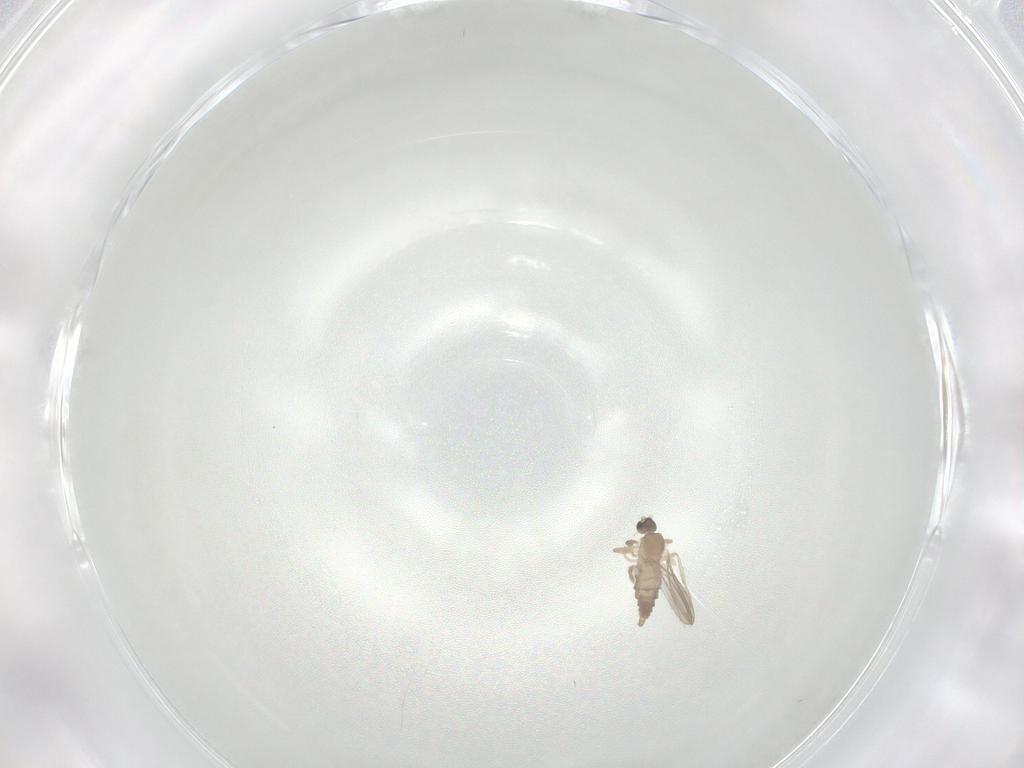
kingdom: Animalia
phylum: Arthropoda
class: Insecta
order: Diptera
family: Chironomidae
